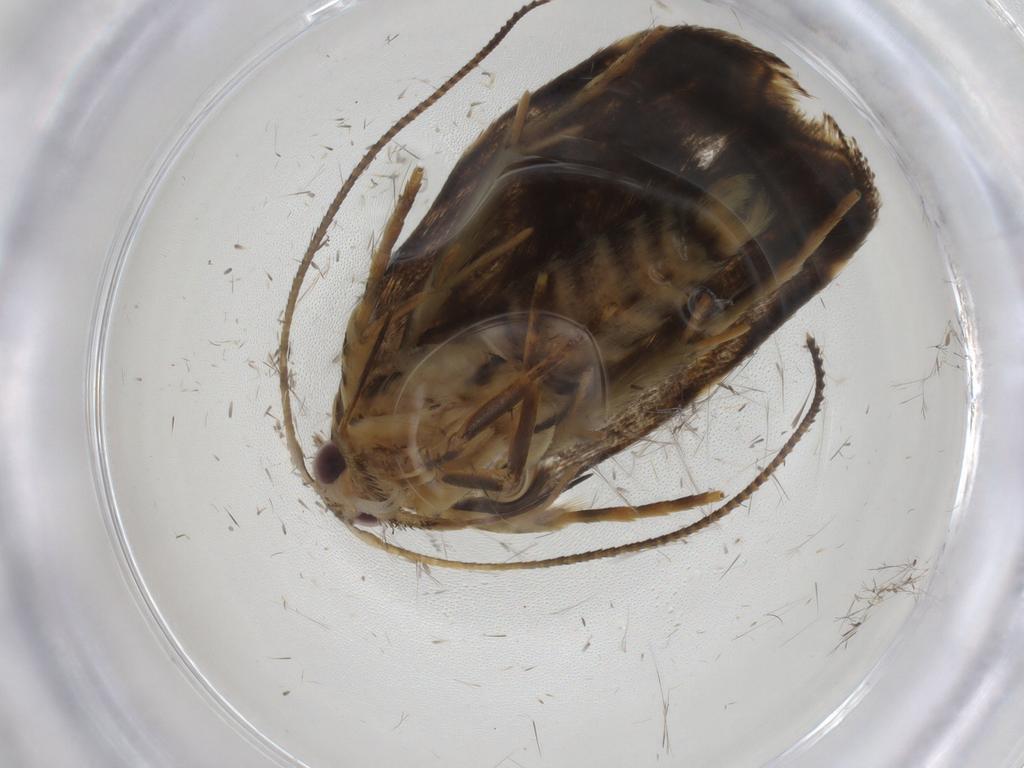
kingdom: Animalia
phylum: Arthropoda
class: Insecta
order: Lepidoptera
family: Gelechiidae
